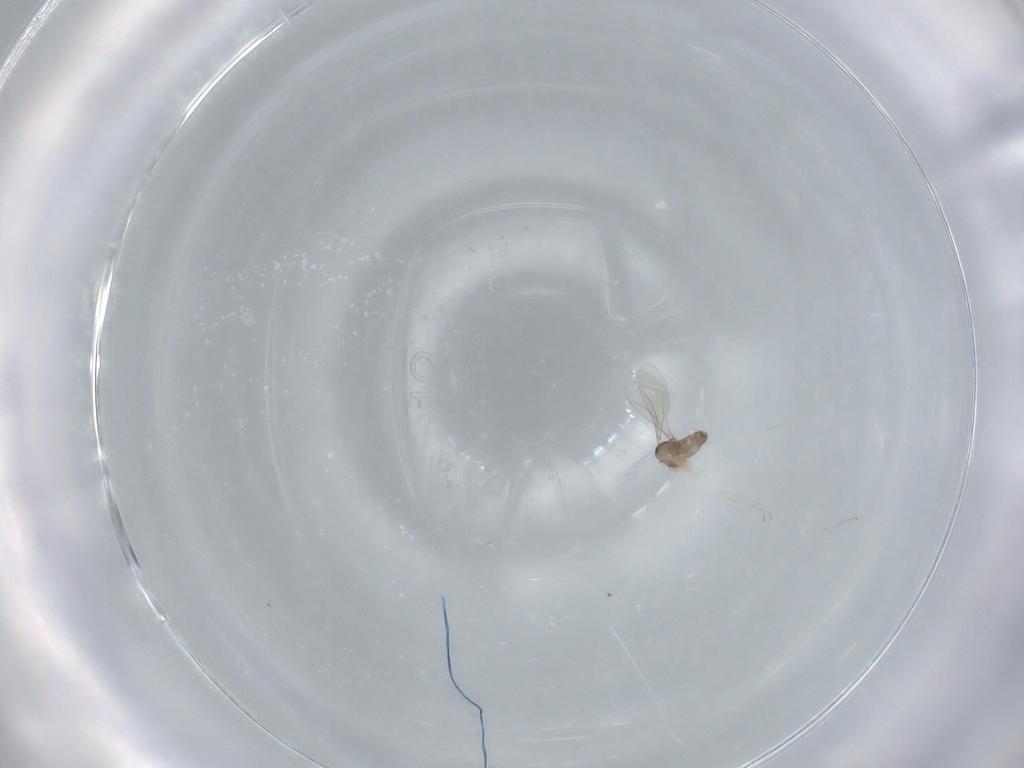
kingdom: Animalia
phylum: Arthropoda
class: Insecta
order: Diptera
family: Cecidomyiidae
